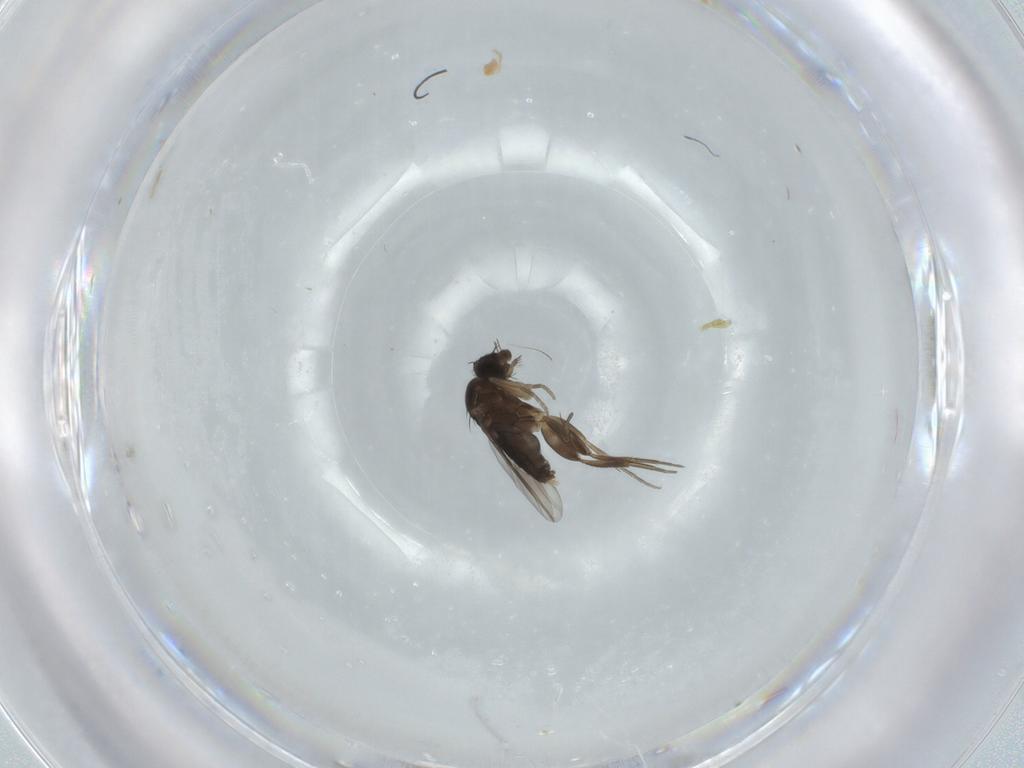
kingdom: Animalia
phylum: Arthropoda
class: Insecta
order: Diptera
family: Phoridae
